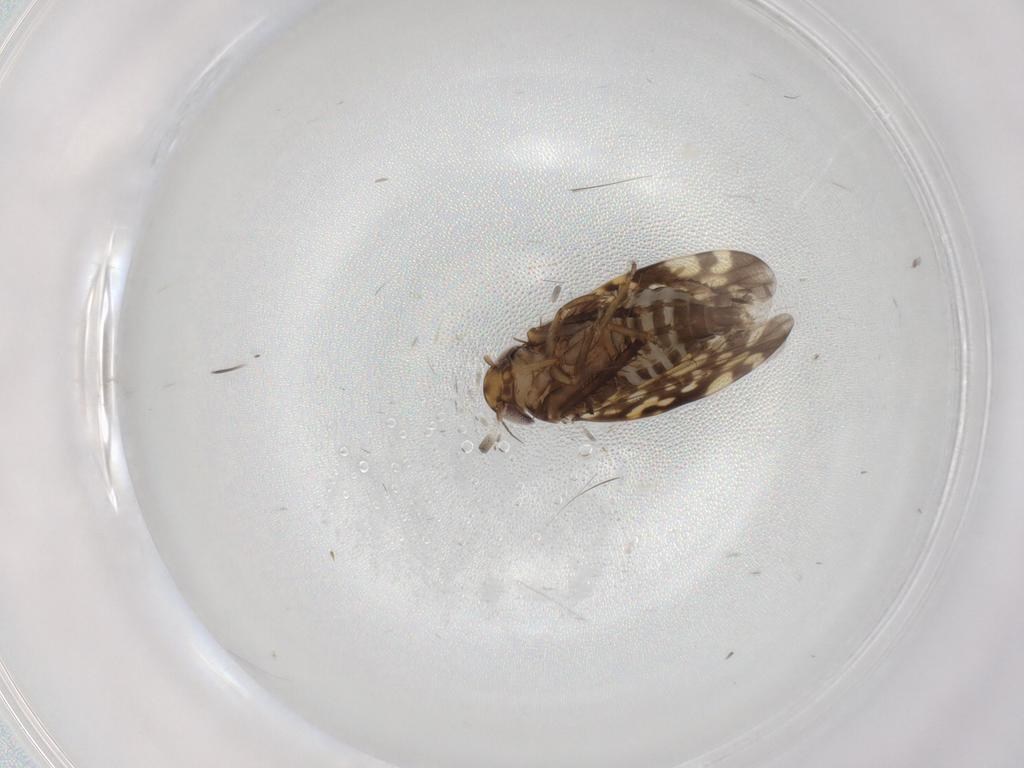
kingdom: Animalia
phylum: Arthropoda
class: Insecta
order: Hemiptera
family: Cicadellidae
